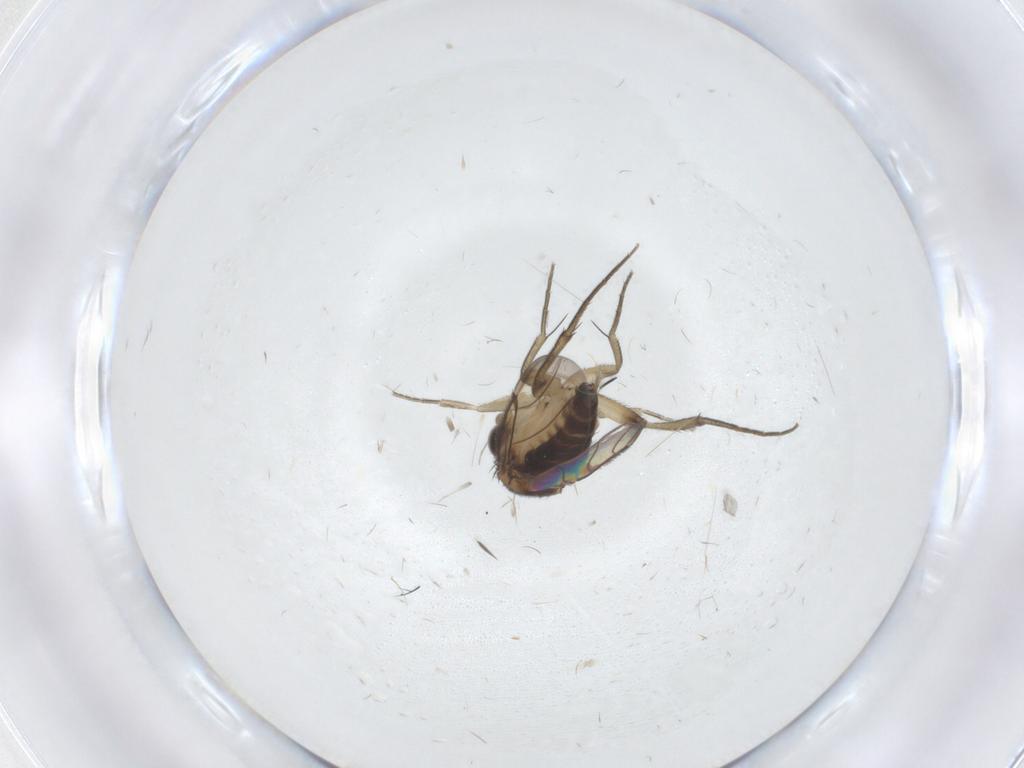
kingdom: Animalia
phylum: Arthropoda
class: Insecta
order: Diptera
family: Phoridae
